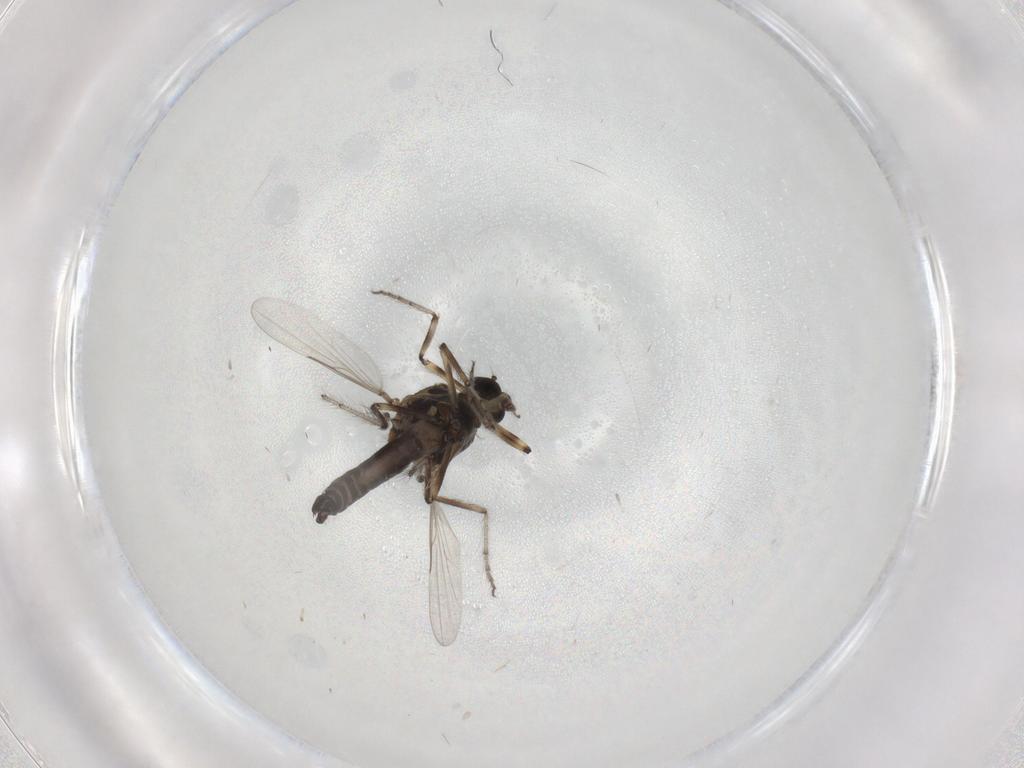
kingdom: Animalia
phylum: Arthropoda
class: Insecta
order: Diptera
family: Ceratopogonidae
